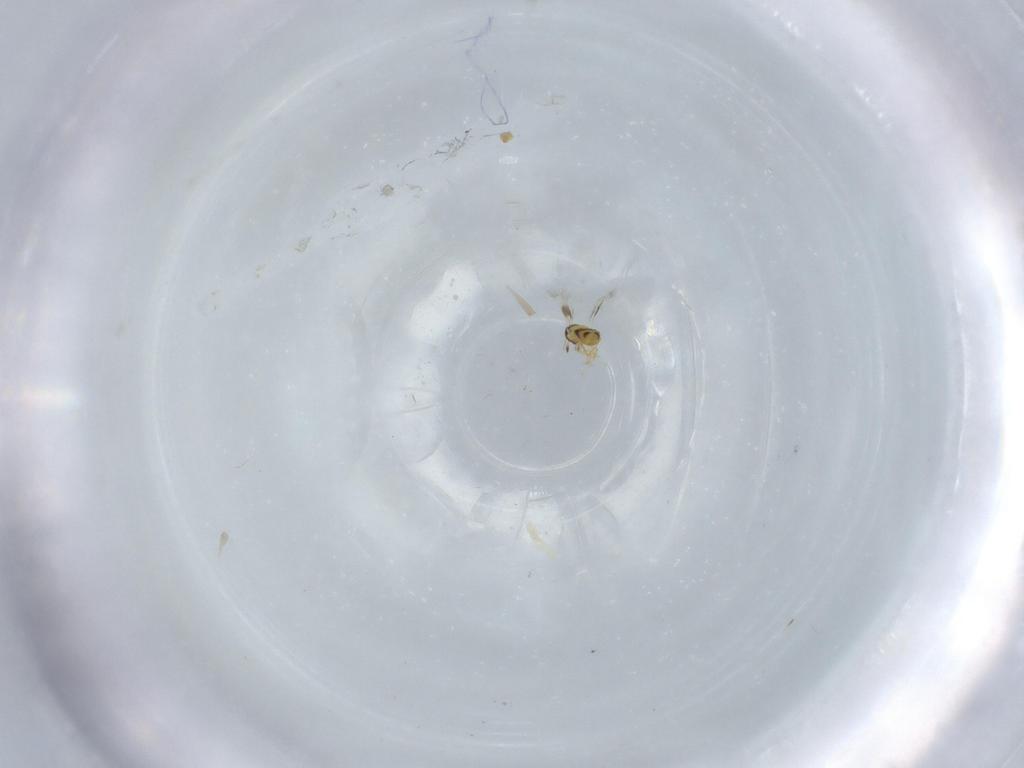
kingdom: Animalia
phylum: Arthropoda
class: Insecta
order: Hymenoptera
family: Signiphoridae
